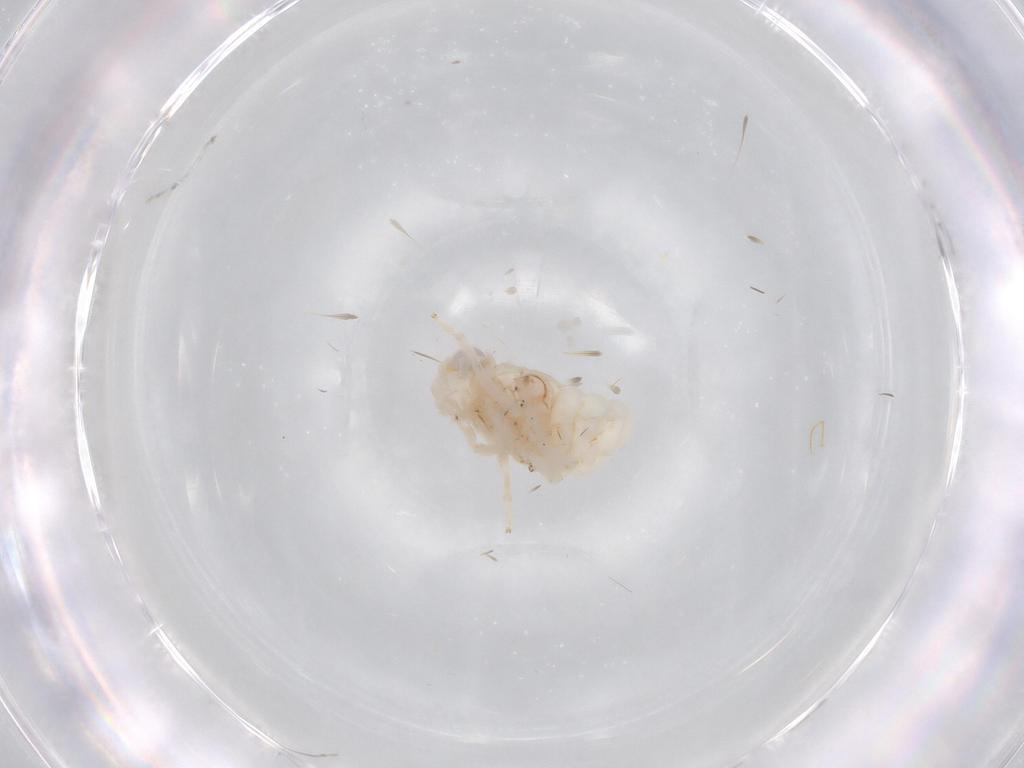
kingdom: Animalia
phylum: Arthropoda
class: Insecta
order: Hemiptera
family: Nogodinidae
